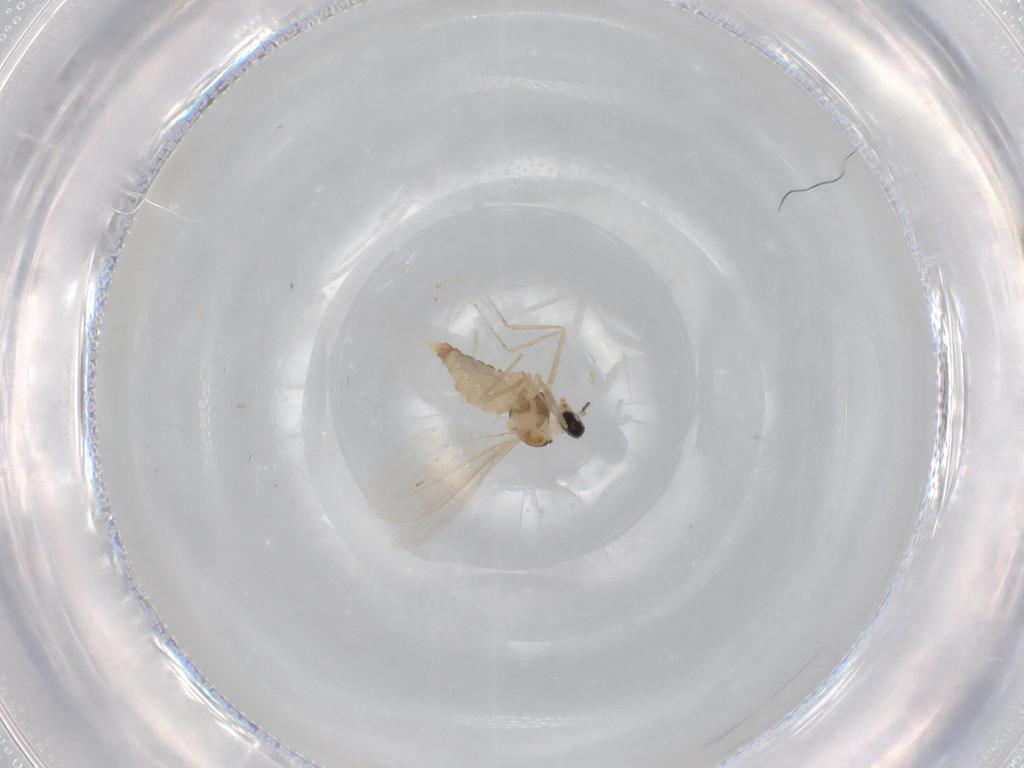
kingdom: Animalia
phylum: Arthropoda
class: Insecta
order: Diptera
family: Cecidomyiidae
